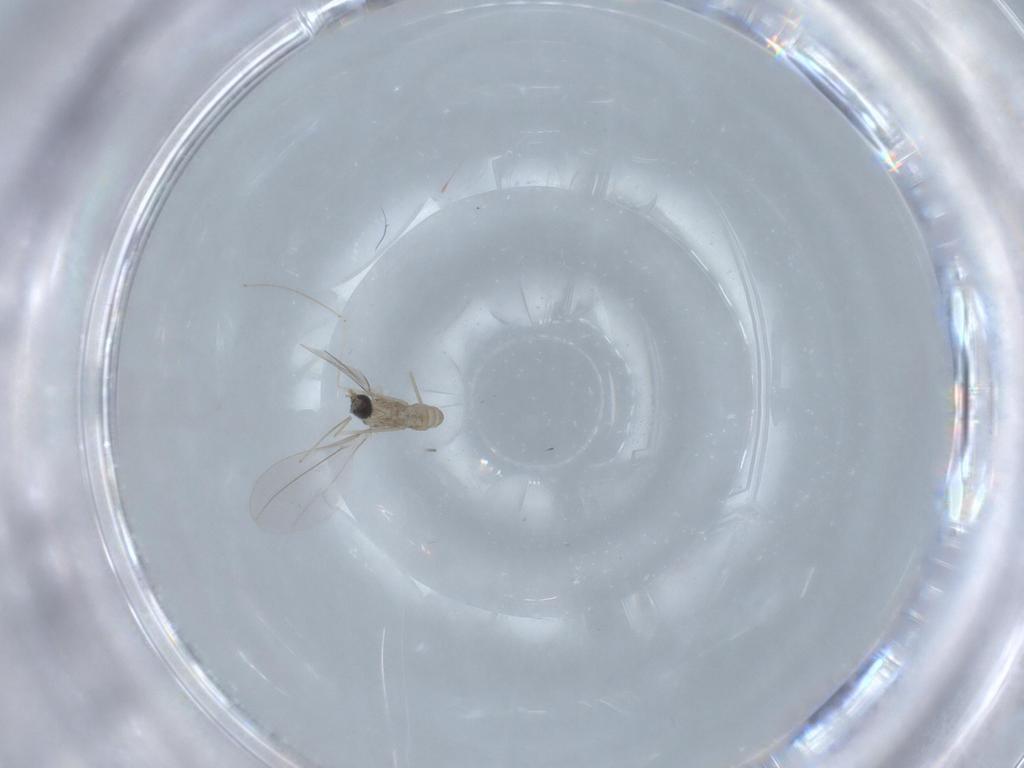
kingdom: Animalia
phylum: Arthropoda
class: Insecta
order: Diptera
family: Cecidomyiidae
